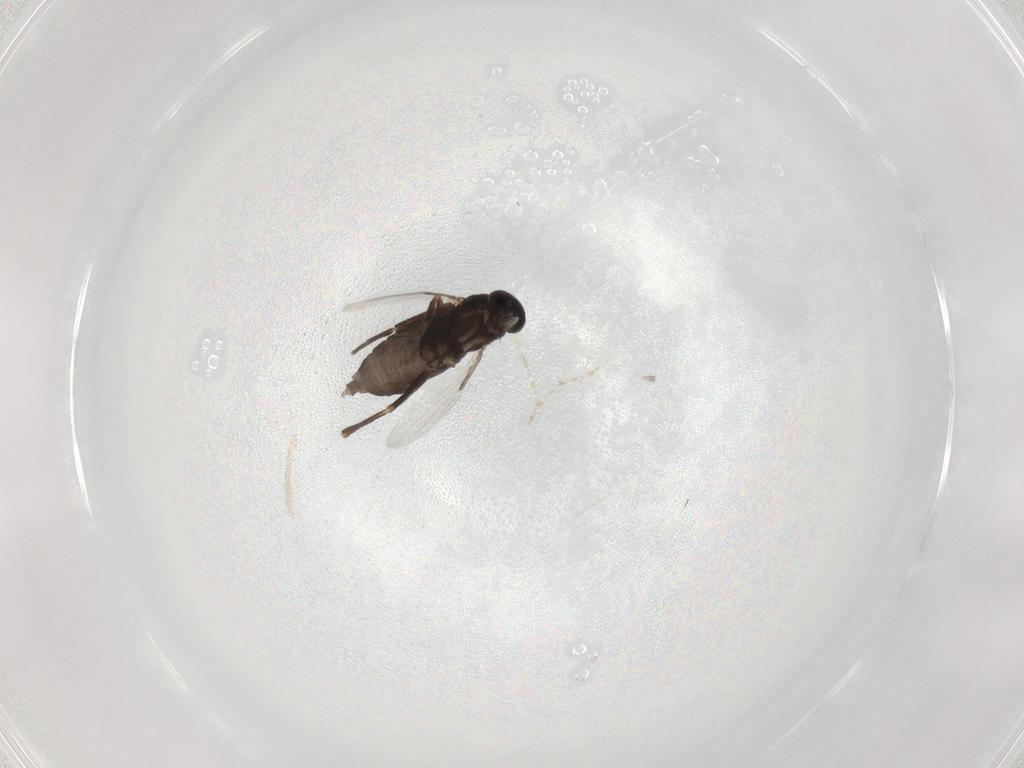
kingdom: Animalia
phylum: Arthropoda
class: Insecta
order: Diptera
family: Phoridae
